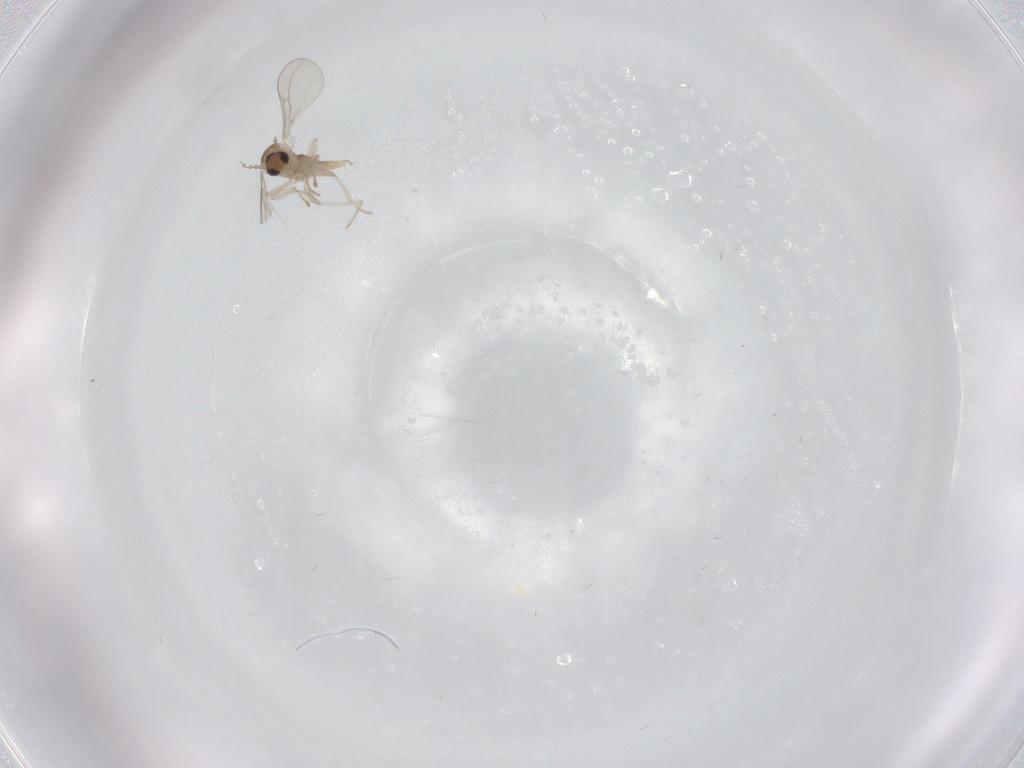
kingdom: Animalia
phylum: Arthropoda
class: Insecta
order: Diptera
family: Cecidomyiidae
